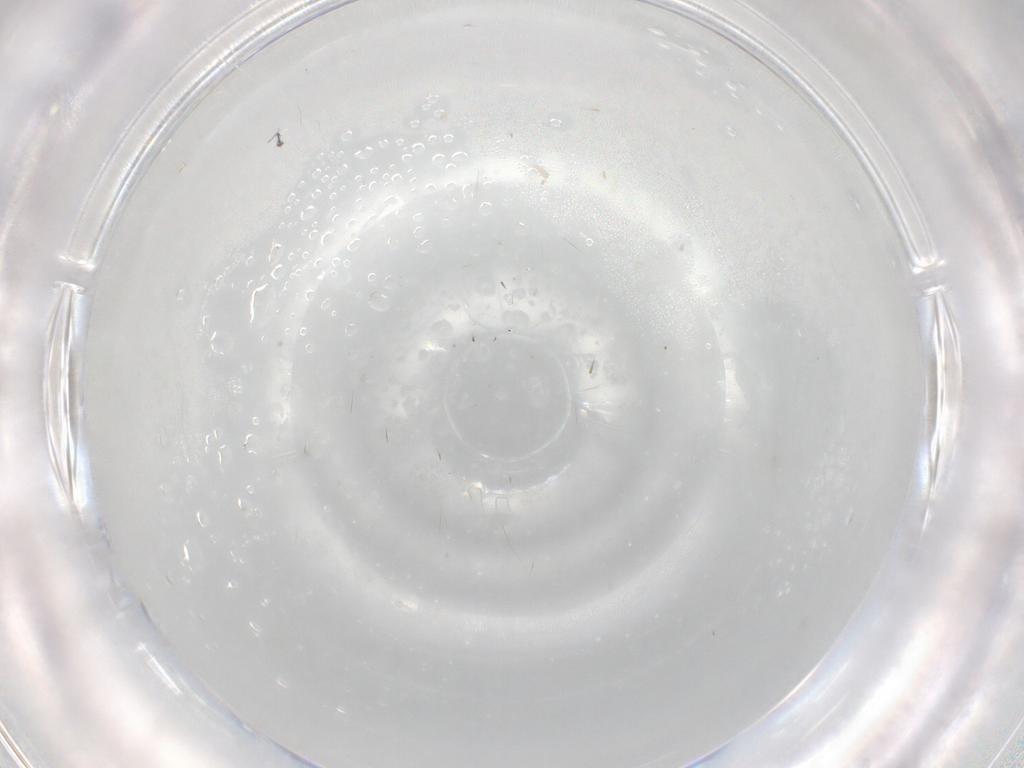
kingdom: Animalia
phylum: Arthropoda
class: Insecta
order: Diptera
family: Cecidomyiidae
